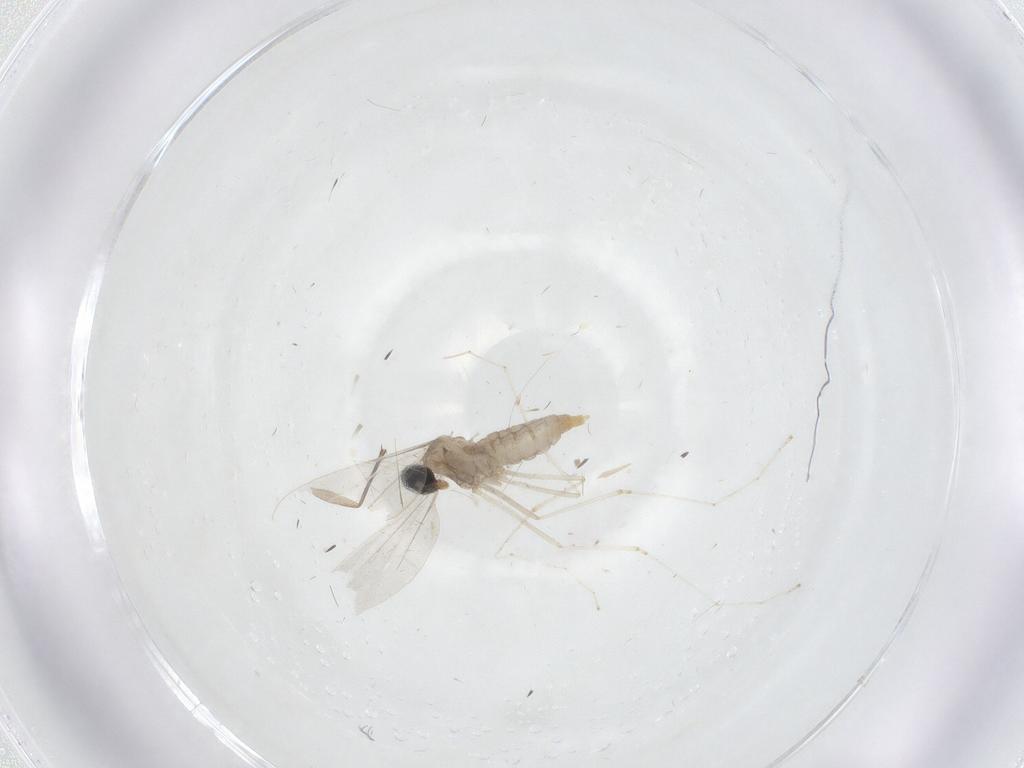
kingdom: Animalia
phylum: Arthropoda
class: Insecta
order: Diptera
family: Cecidomyiidae
